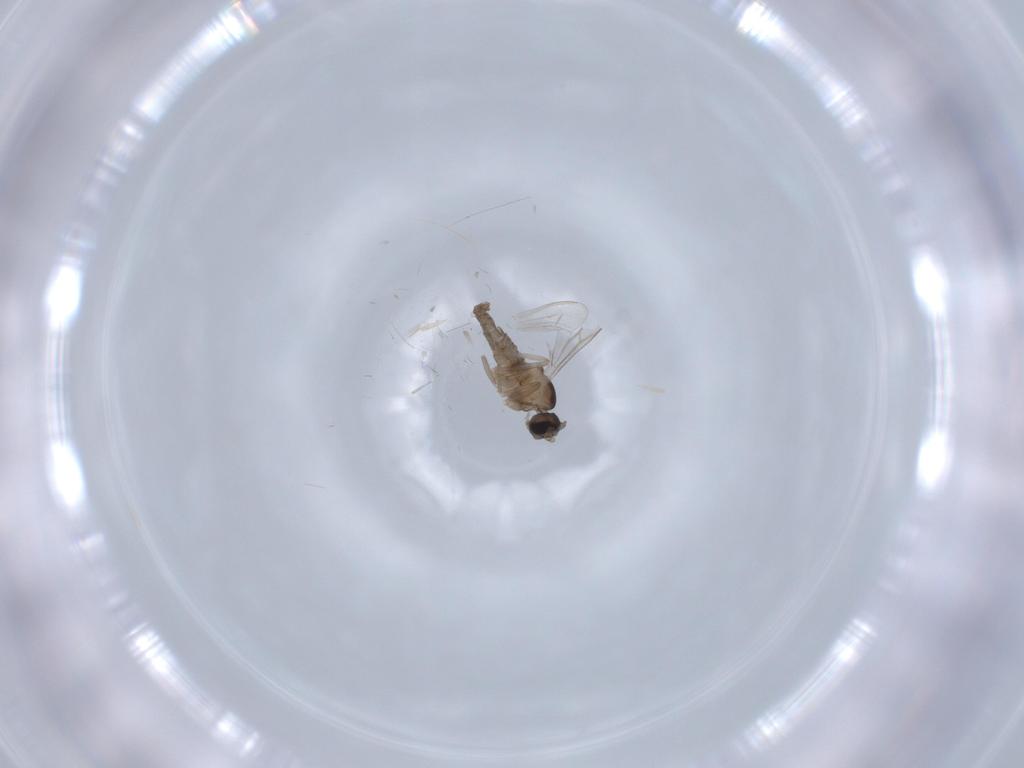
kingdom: Animalia
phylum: Arthropoda
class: Insecta
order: Diptera
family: Cecidomyiidae
